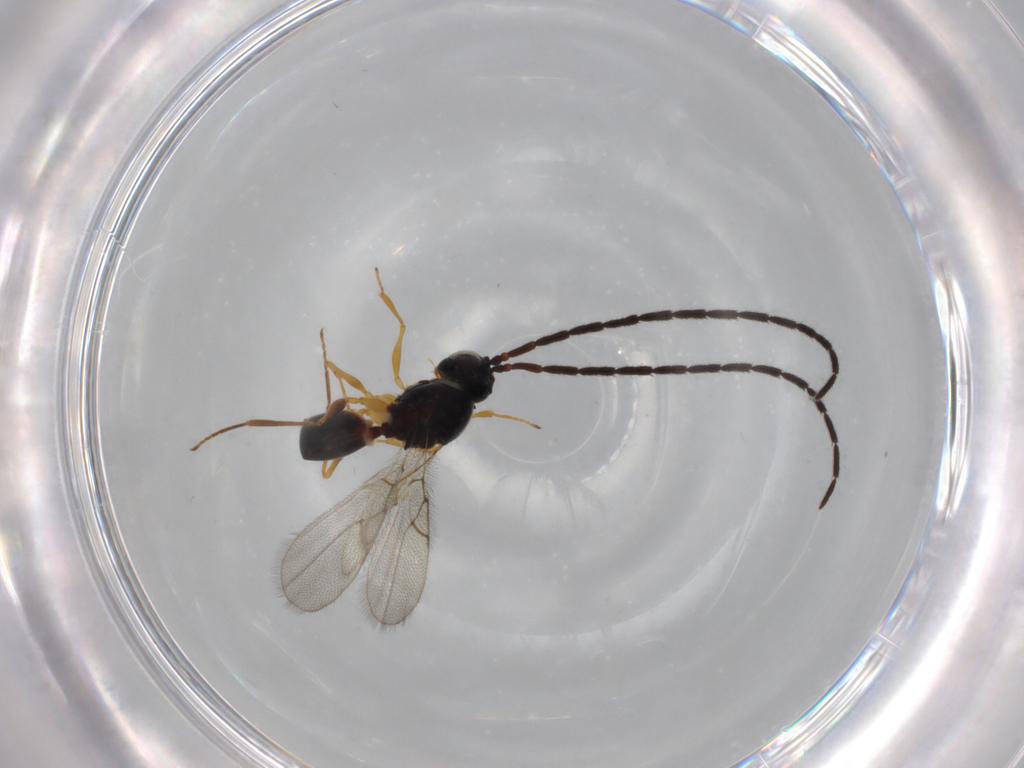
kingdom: Animalia
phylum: Arthropoda
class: Insecta
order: Hymenoptera
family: Figitidae
